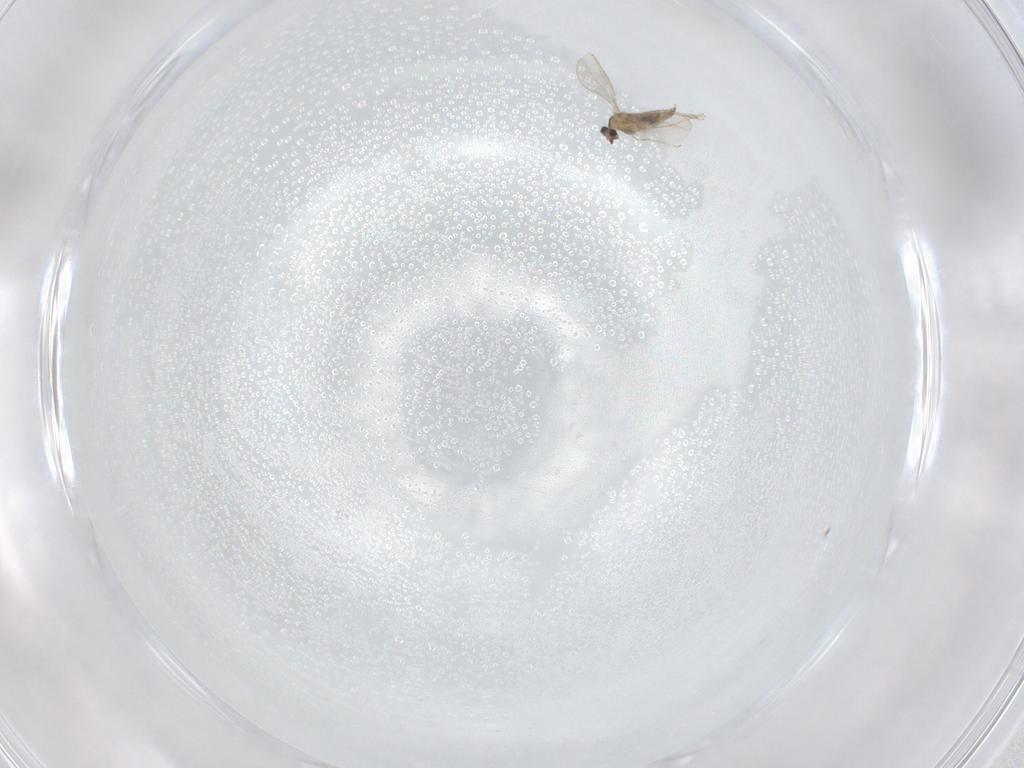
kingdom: Animalia
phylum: Arthropoda
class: Insecta
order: Diptera
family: Cecidomyiidae
